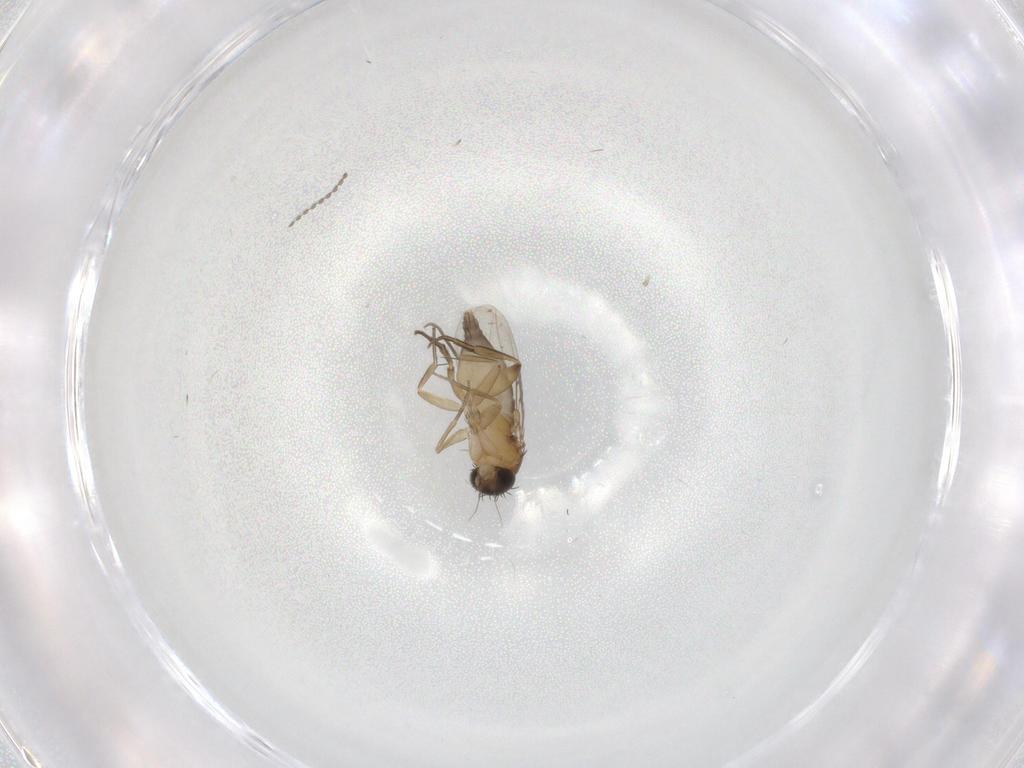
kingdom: Animalia
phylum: Arthropoda
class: Insecta
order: Diptera
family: Phoridae
